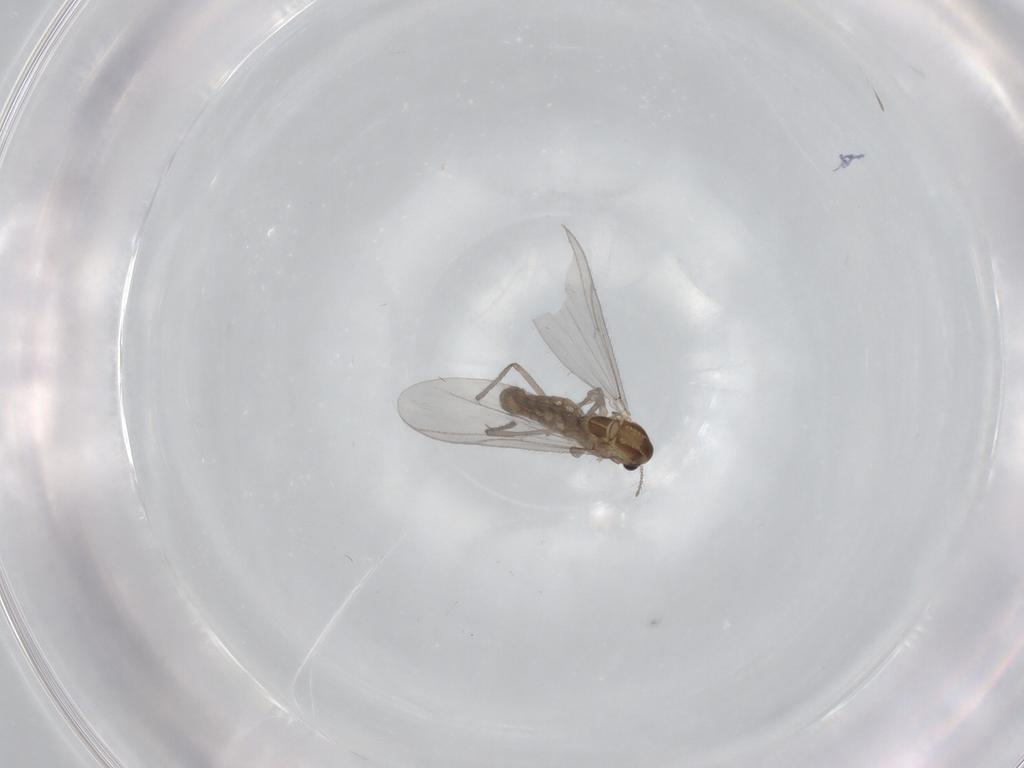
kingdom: Animalia
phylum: Arthropoda
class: Insecta
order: Diptera
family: Chironomidae
